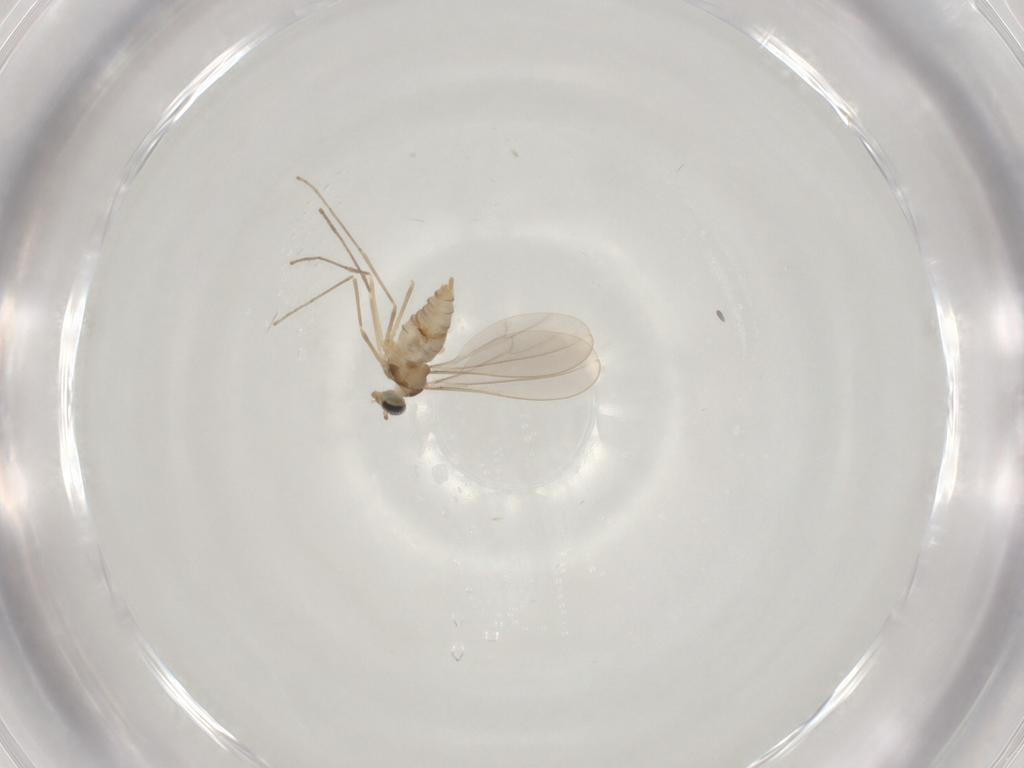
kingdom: Animalia
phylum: Arthropoda
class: Insecta
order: Diptera
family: Cecidomyiidae
